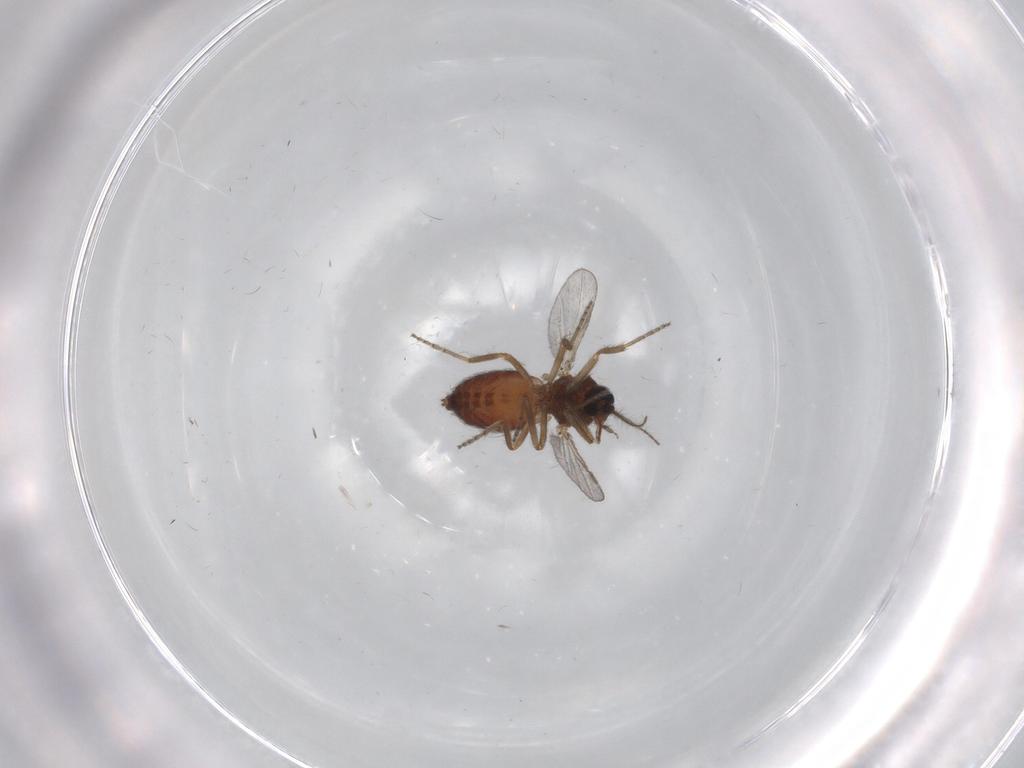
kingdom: Animalia
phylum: Arthropoda
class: Insecta
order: Diptera
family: Ceratopogonidae
